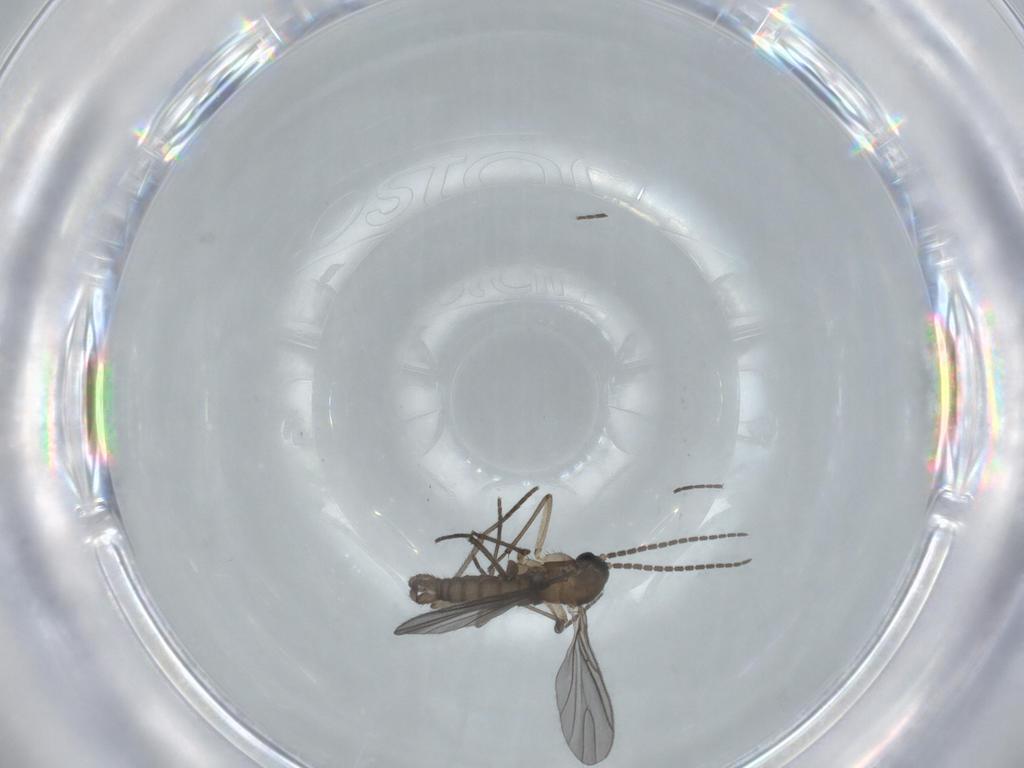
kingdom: Animalia
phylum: Arthropoda
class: Insecta
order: Diptera
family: Sciaridae
